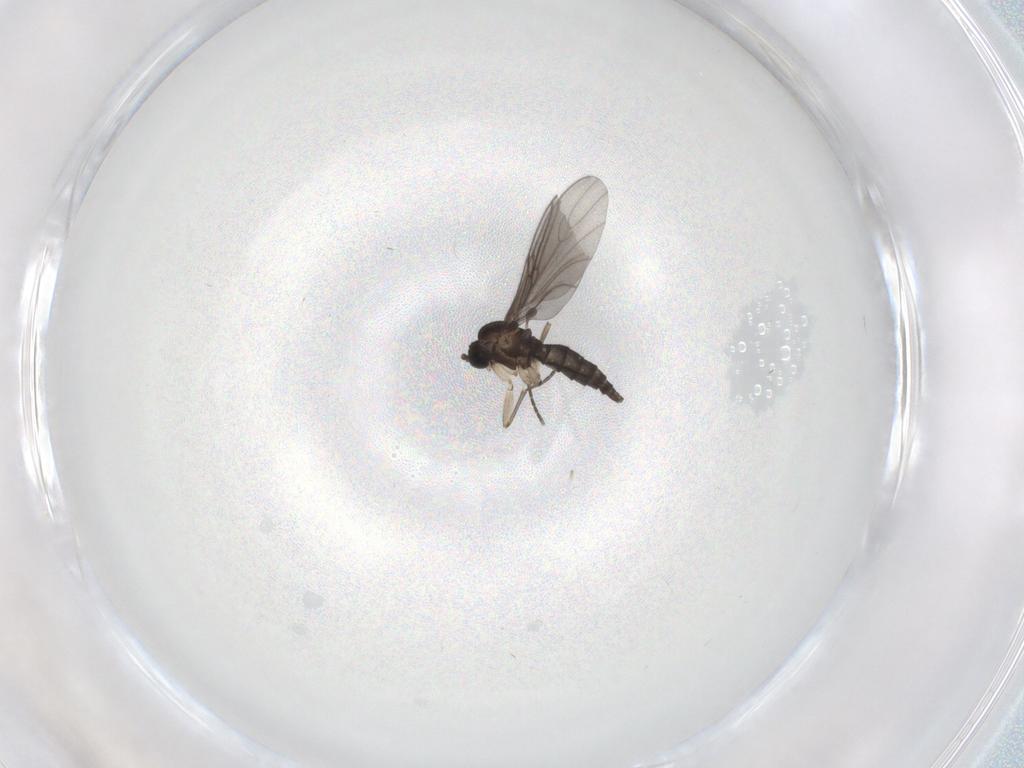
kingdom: Animalia
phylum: Arthropoda
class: Insecta
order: Diptera
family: Sciaridae
